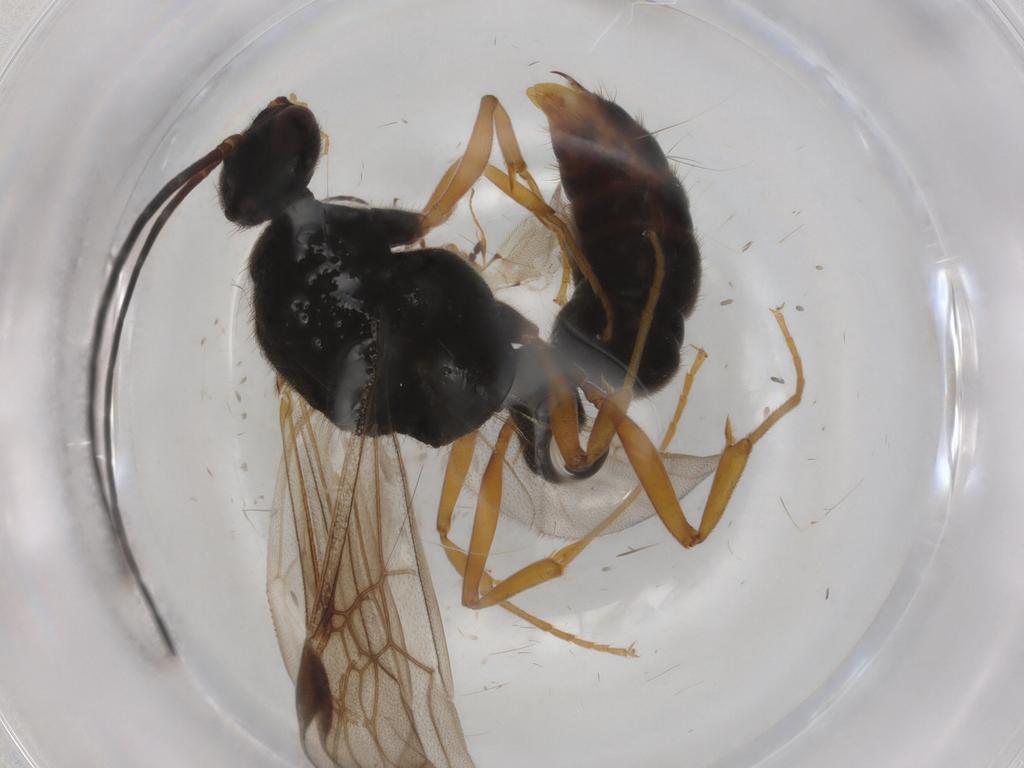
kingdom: Animalia
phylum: Arthropoda
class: Insecta
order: Hymenoptera
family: Formicidae
